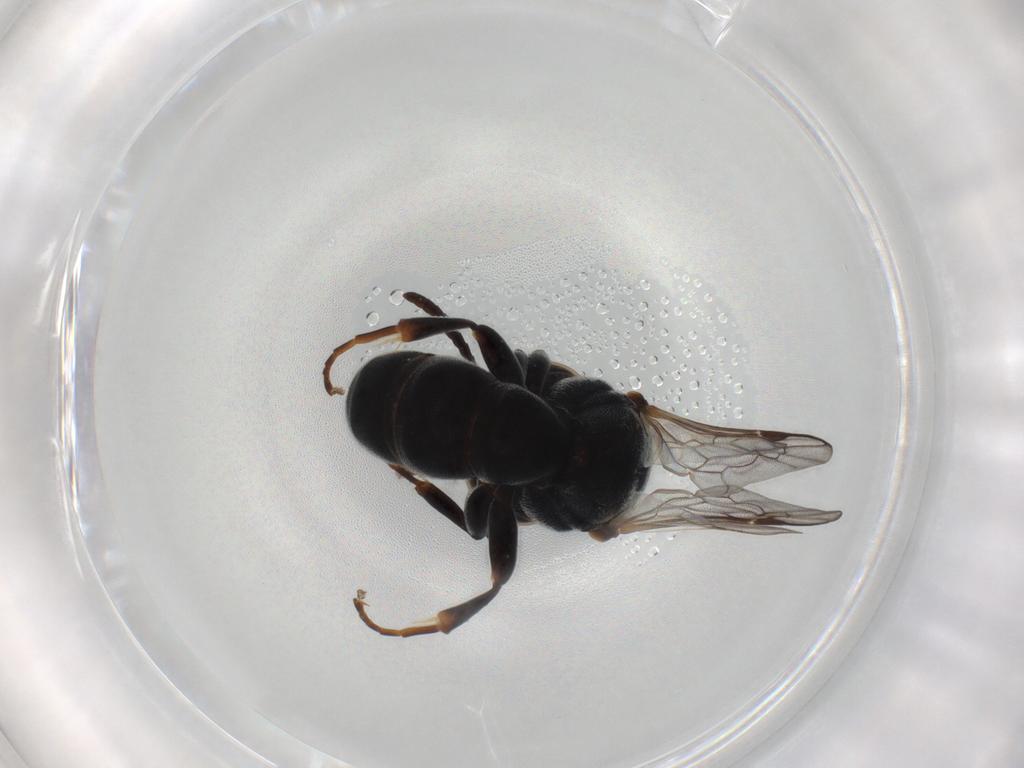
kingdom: Animalia
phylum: Arthropoda
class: Insecta
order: Hymenoptera
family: Crabronidae
